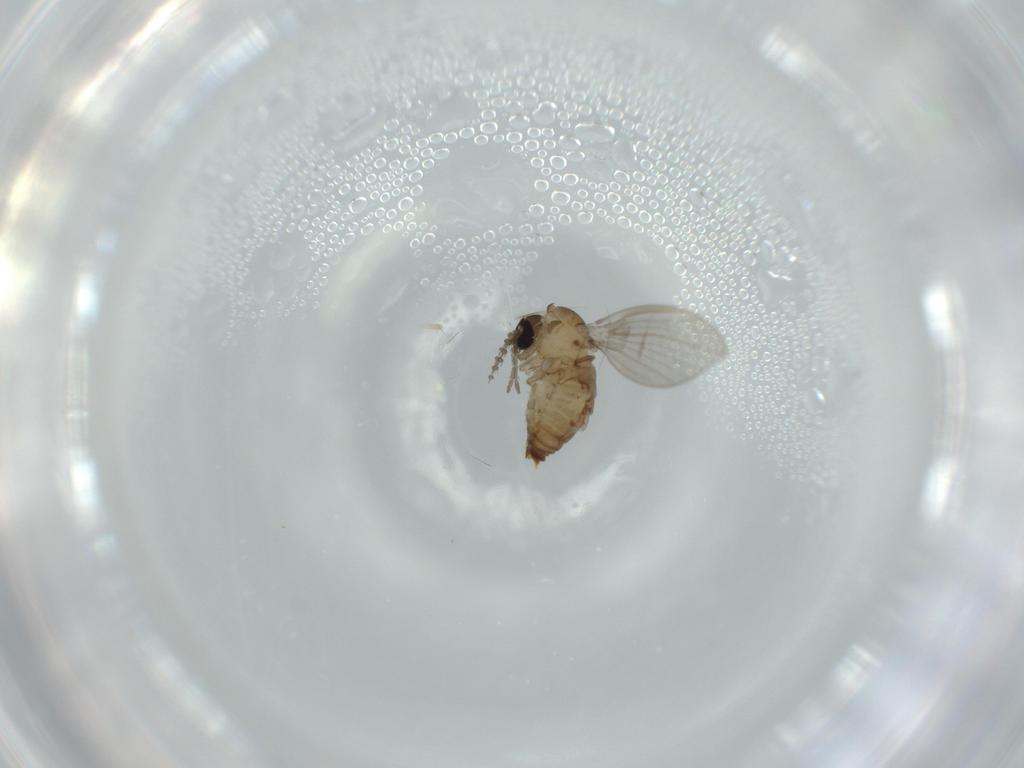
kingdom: Animalia
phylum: Arthropoda
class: Insecta
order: Diptera
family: Psychodidae
